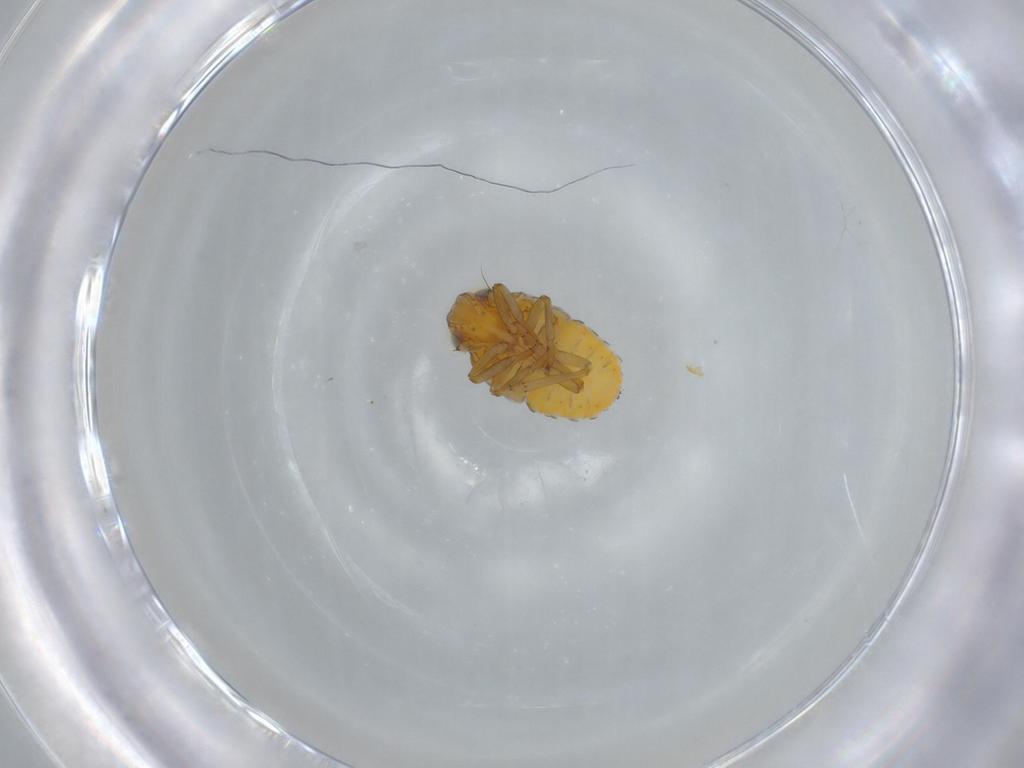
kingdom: Animalia
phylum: Arthropoda
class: Insecta
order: Hemiptera
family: Issidae
